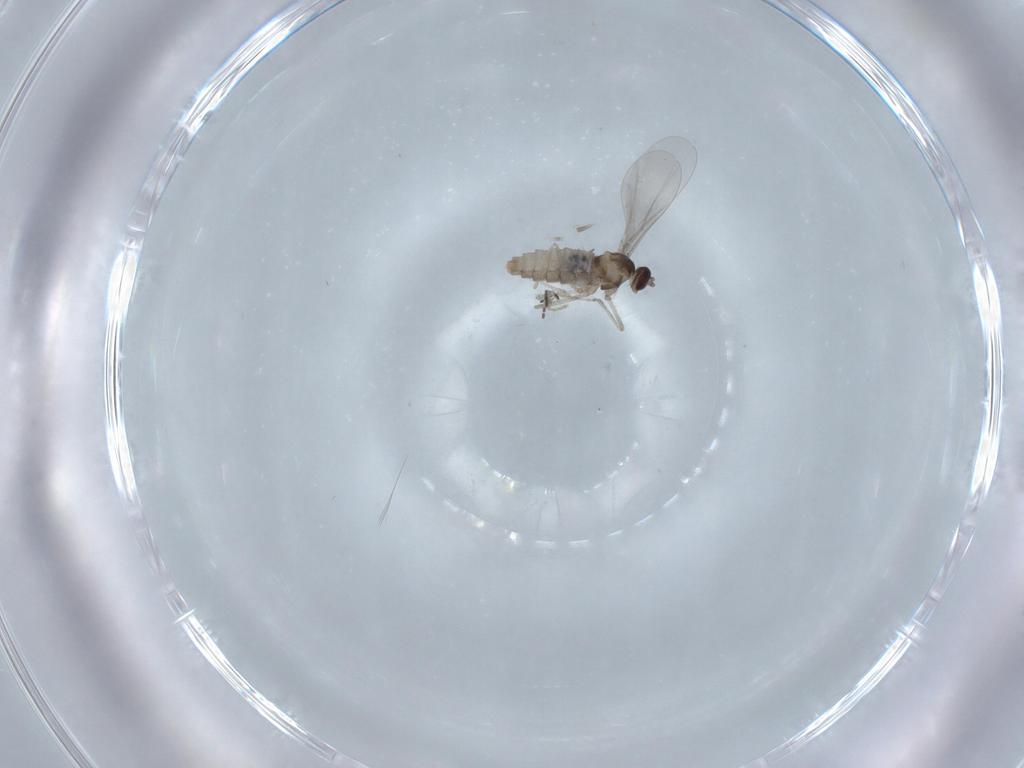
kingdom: Animalia
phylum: Arthropoda
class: Insecta
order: Diptera
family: Cecidomyiidae
